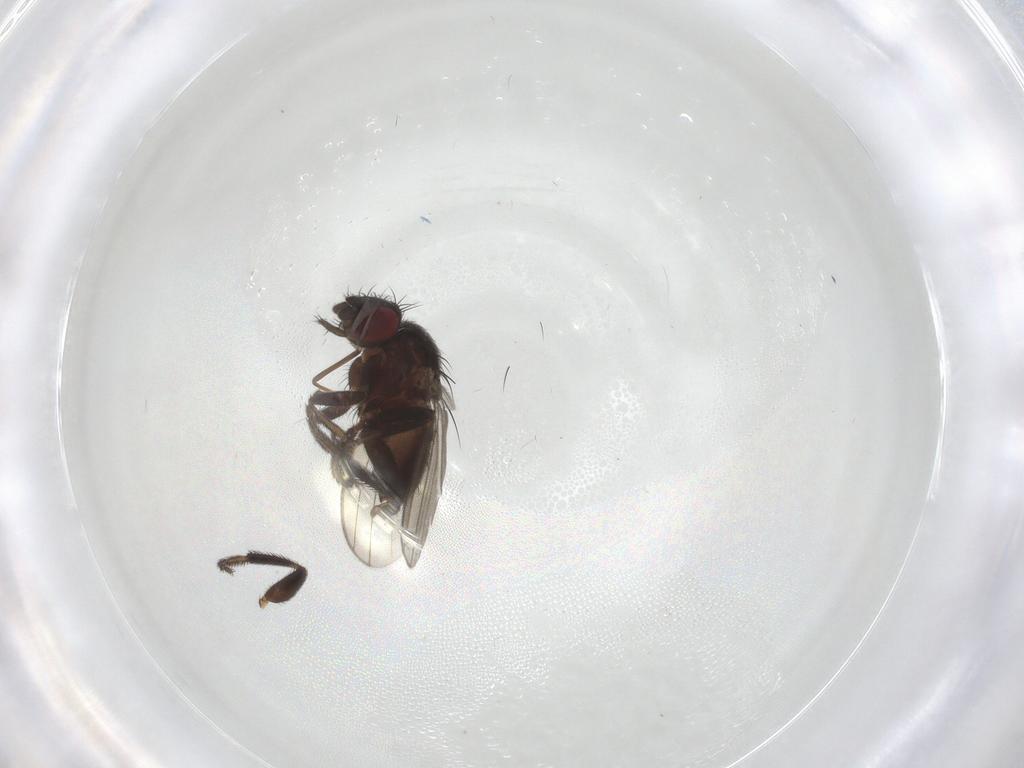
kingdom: Animalia
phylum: Arthropoda
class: Insecta
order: Diptera
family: Milichiidae
